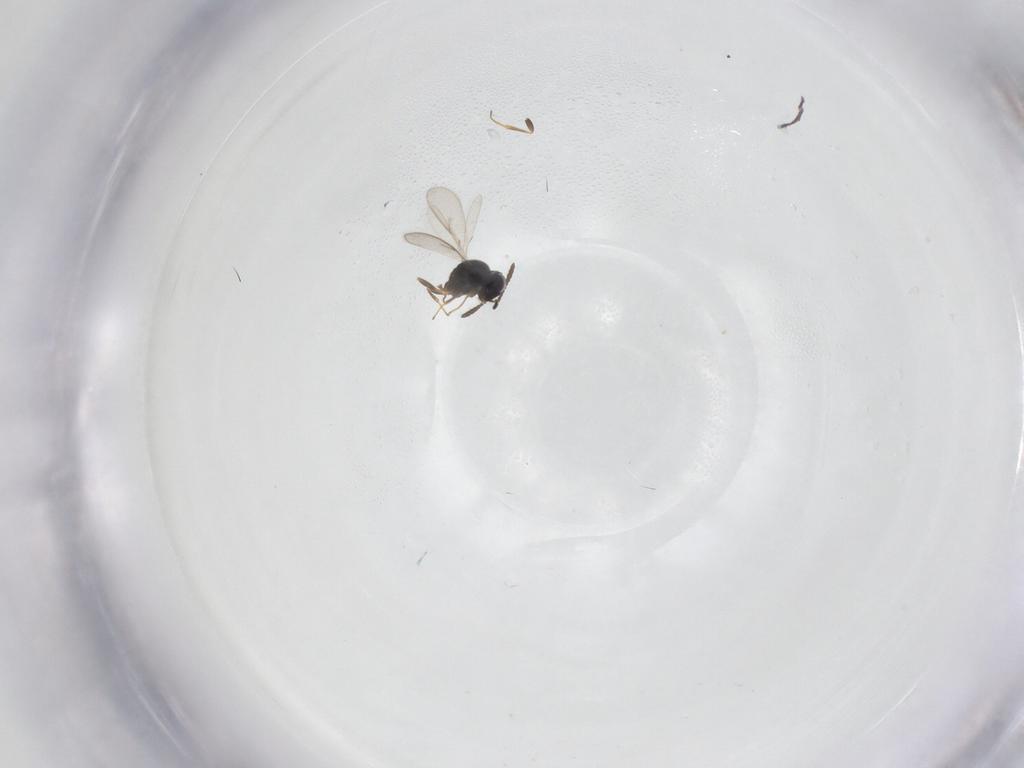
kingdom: Animalia
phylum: Arthropoda
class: Insecta
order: Hymenoptera
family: Scelionidae
